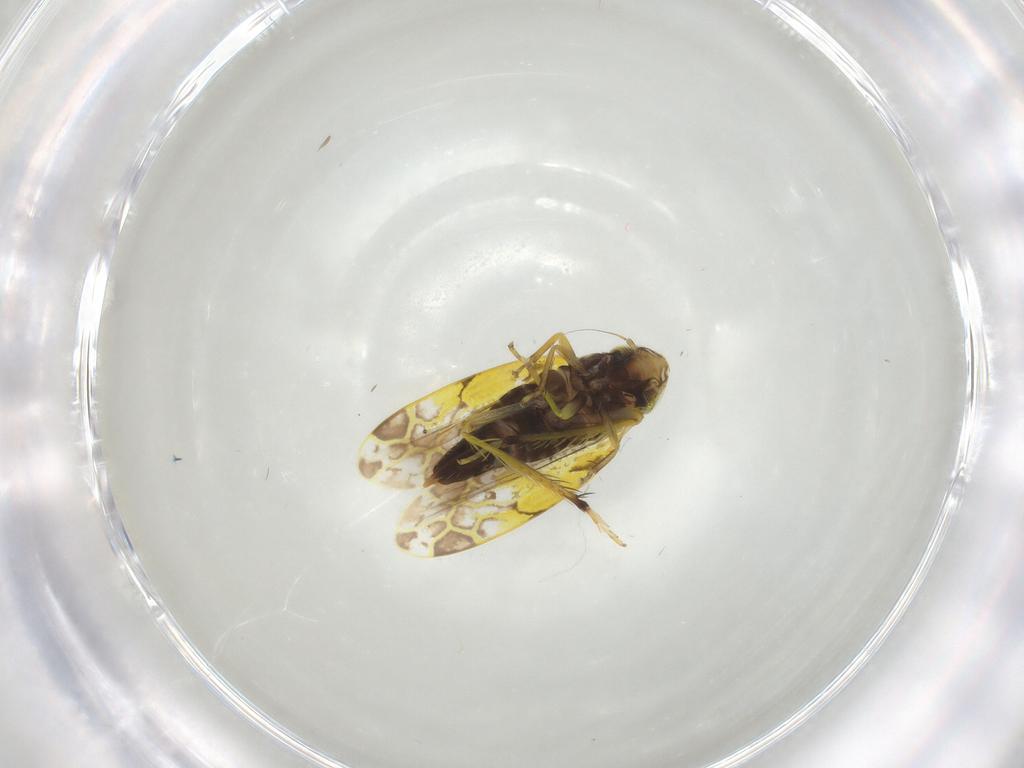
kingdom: Animalia
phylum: Arthropoda
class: Insecta
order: Hemiptera
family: Cicadellidae
